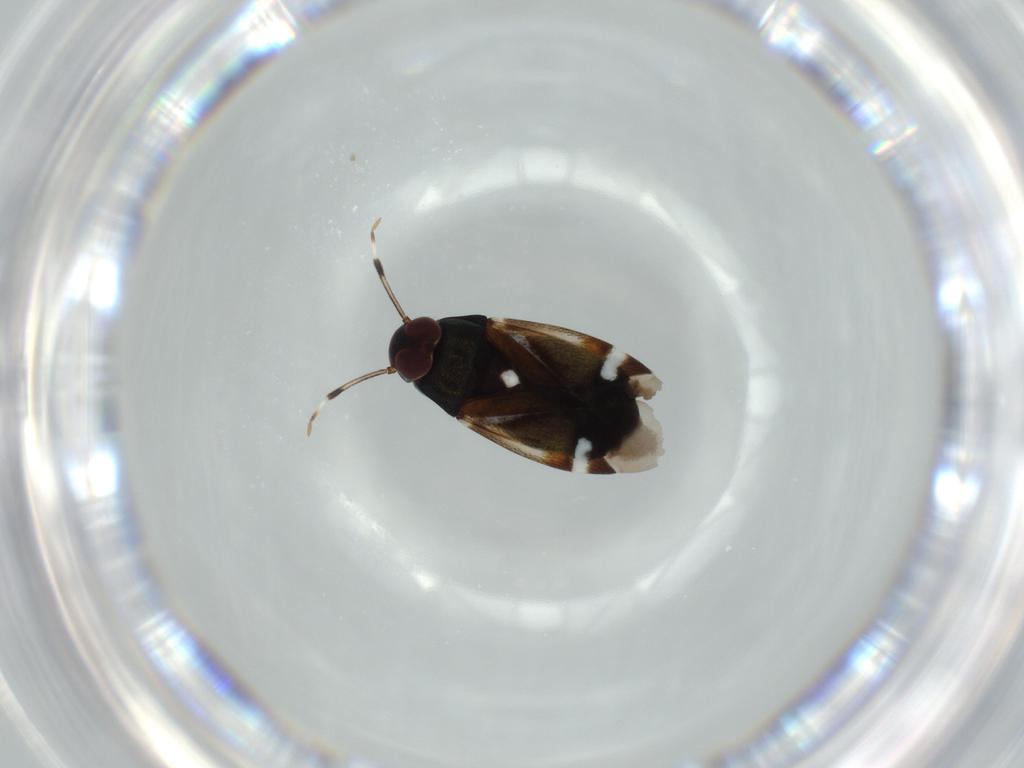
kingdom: Animalia
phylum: Arthropoda
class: Insecta
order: Hemiptera
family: Miridae
